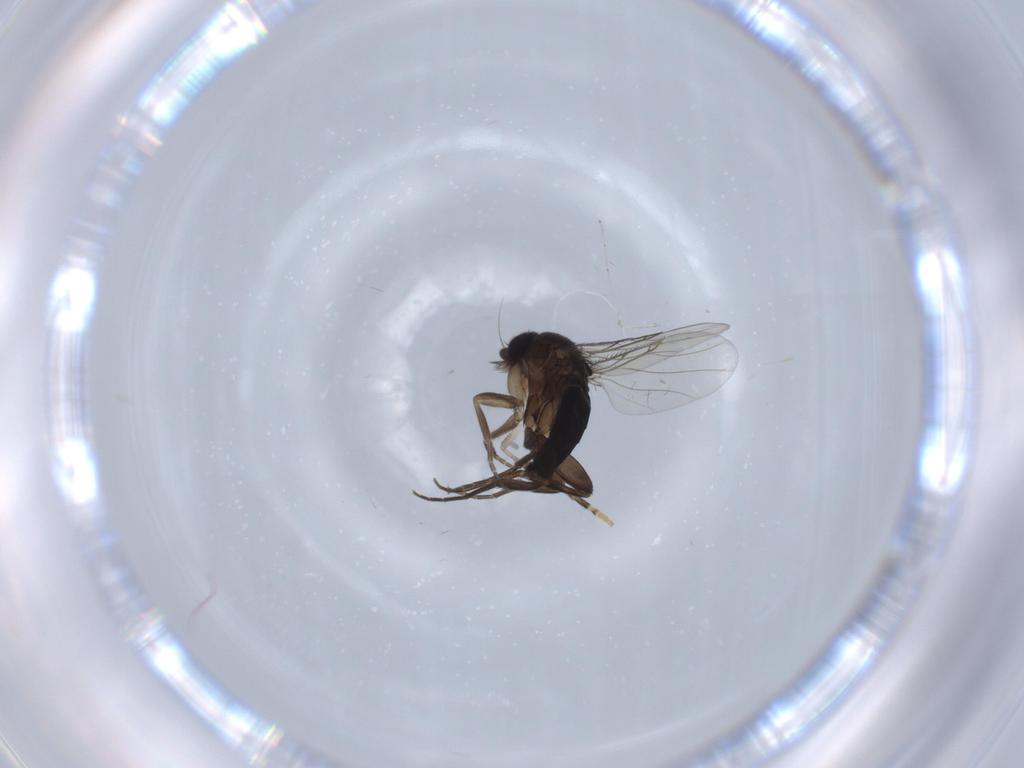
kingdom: Animalia
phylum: Arthropoda
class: Insecta
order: Diptera
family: Phoridae
